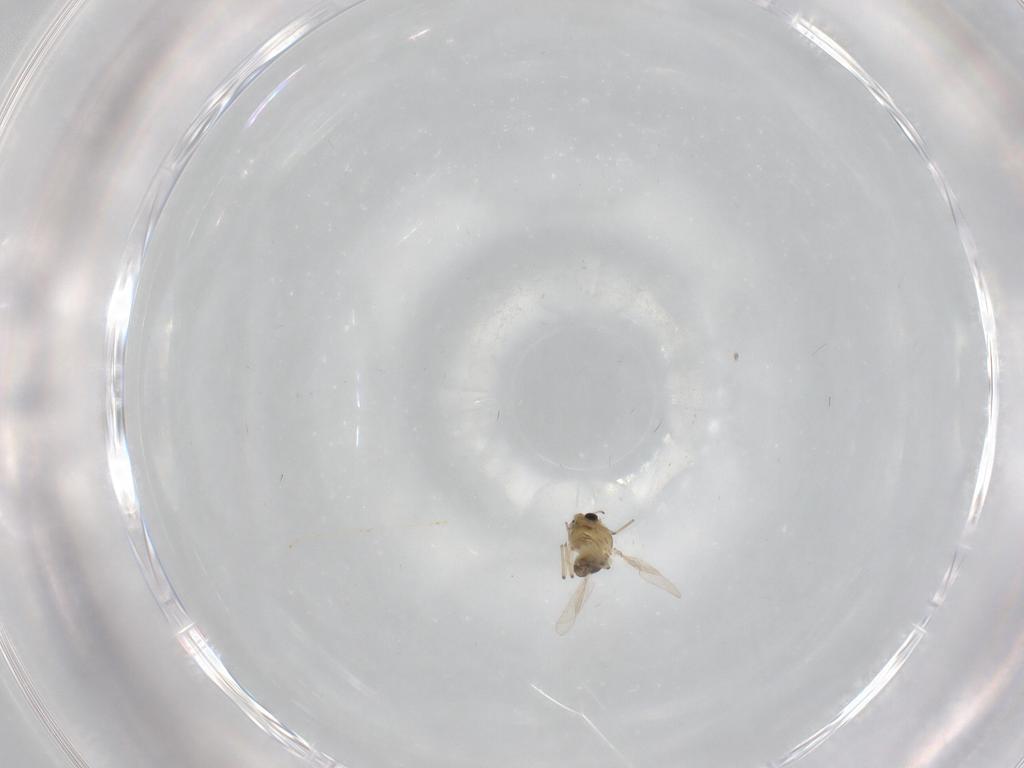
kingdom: Animalia
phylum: Arthropoda
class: Insecta
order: Diptera
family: Chironomidae
